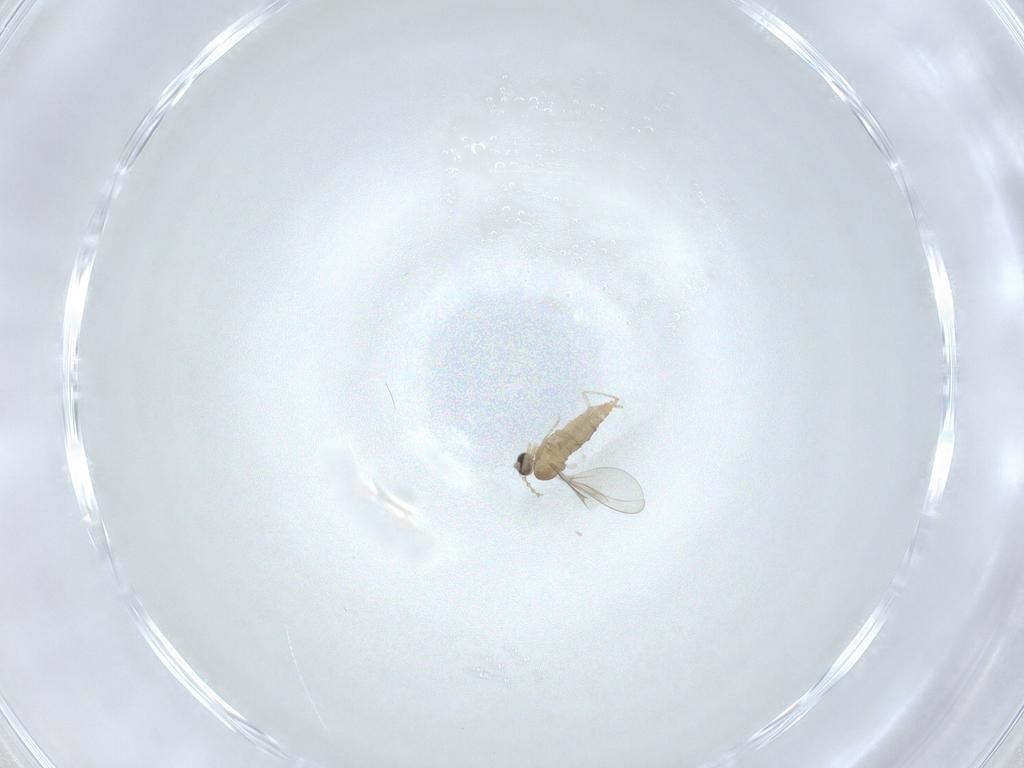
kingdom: Animalia
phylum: Arthropoda
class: Insecta
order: Diptera
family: Cecidomyiidae
